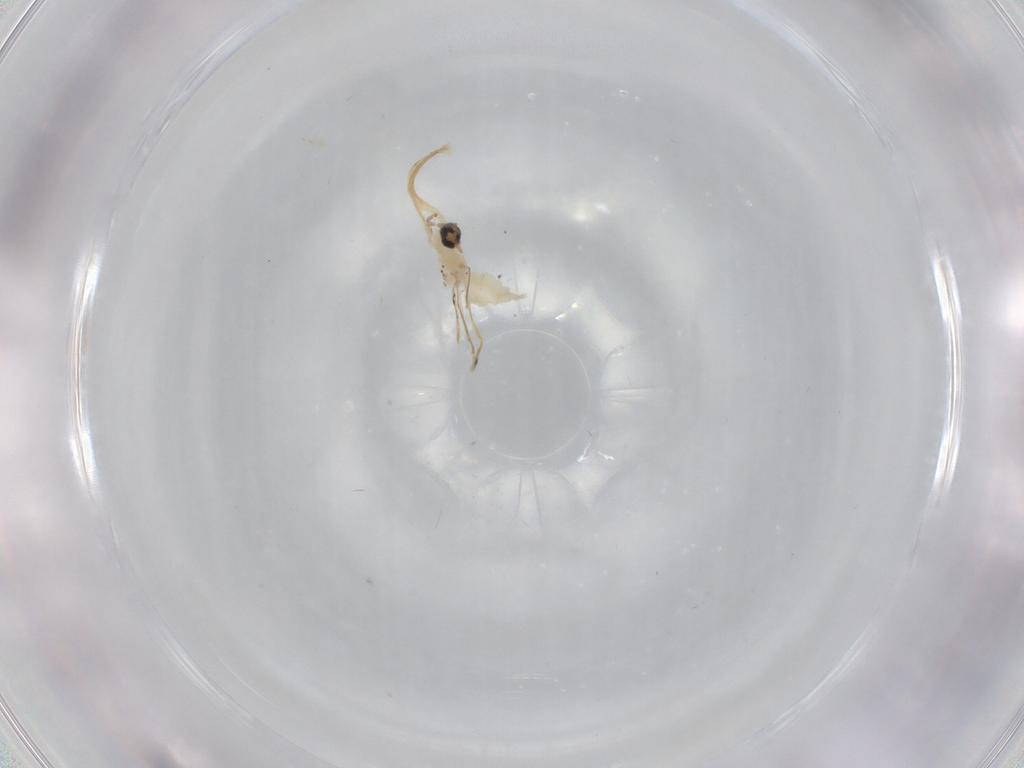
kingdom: Animalia
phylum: Arthropoda
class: Insecta
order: Diptera
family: Cecidomyiidae
